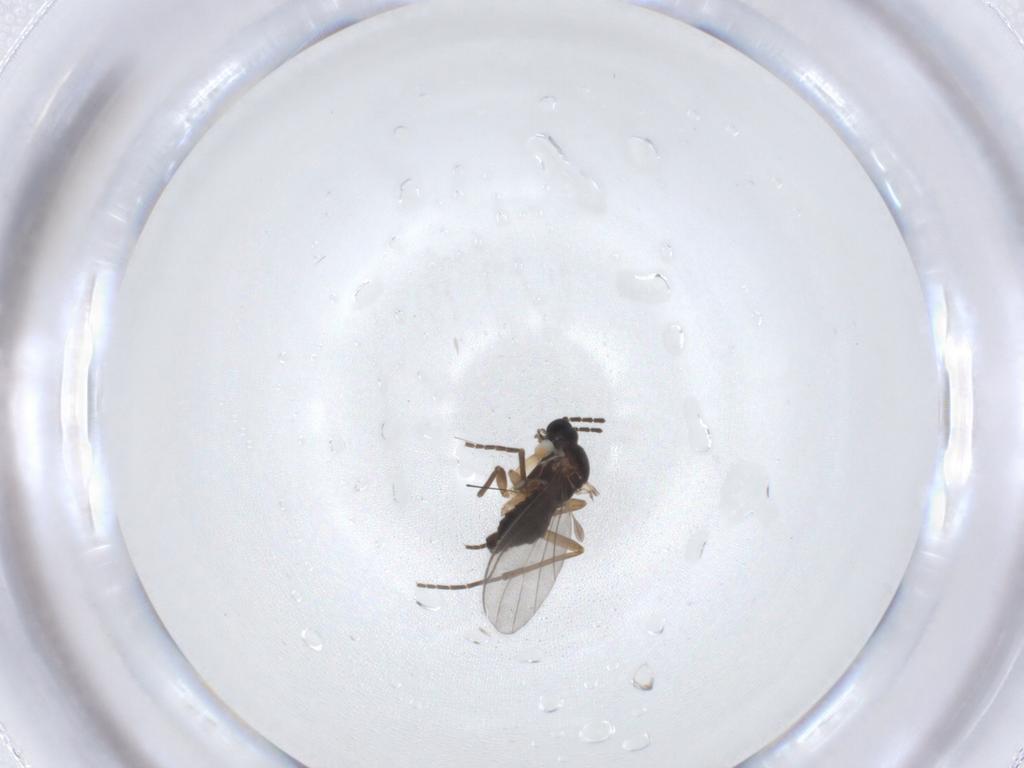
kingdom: Animalia
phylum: Arthropoda
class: Insecta
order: Diptera
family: Sciaridae
